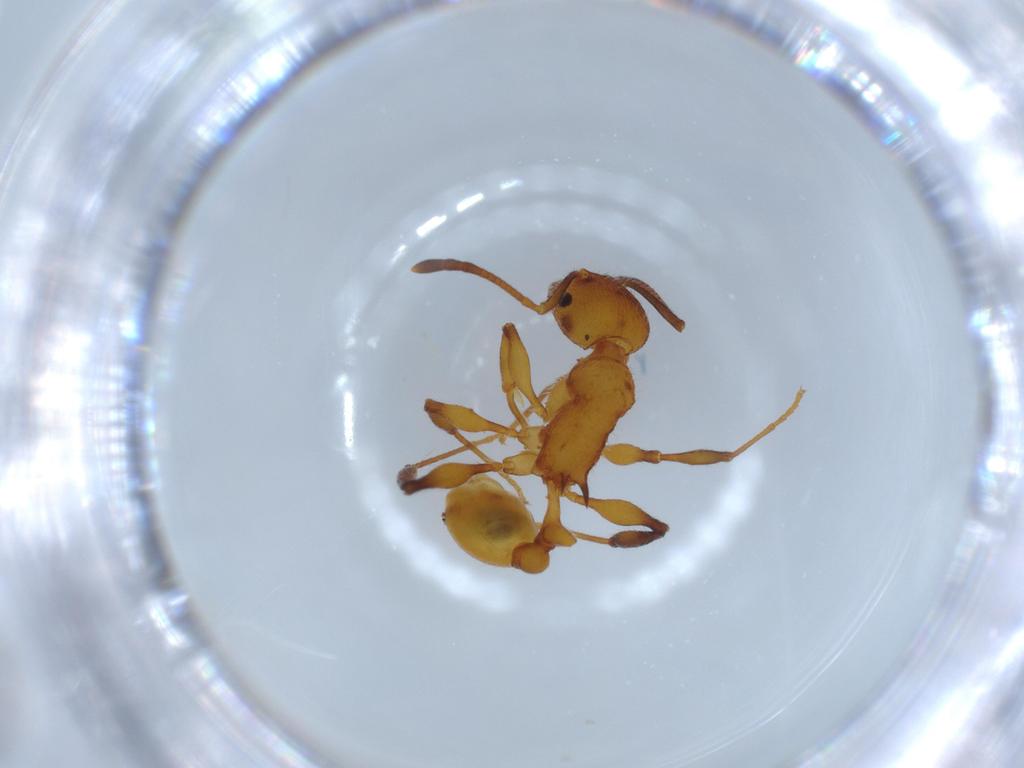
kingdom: Animalia
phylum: Arthropoda
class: Insecta
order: Hymenoptera
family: Formicidae
